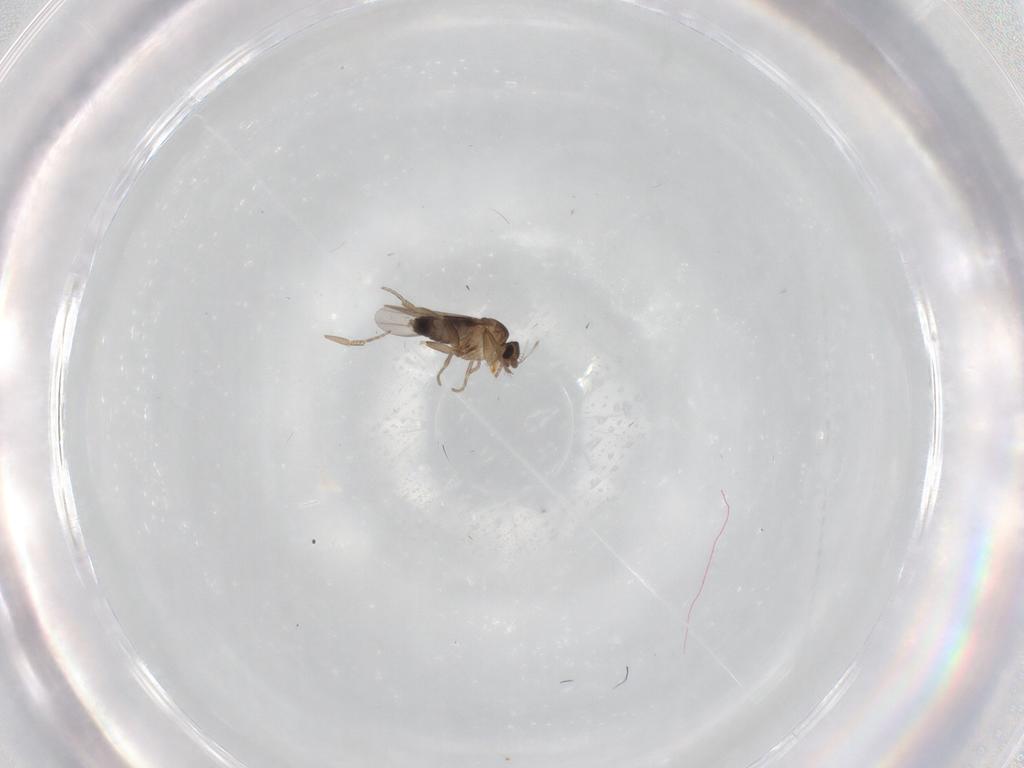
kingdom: Animalia
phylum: Arthropoda
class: Insecta
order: Diptera
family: Phoridae
